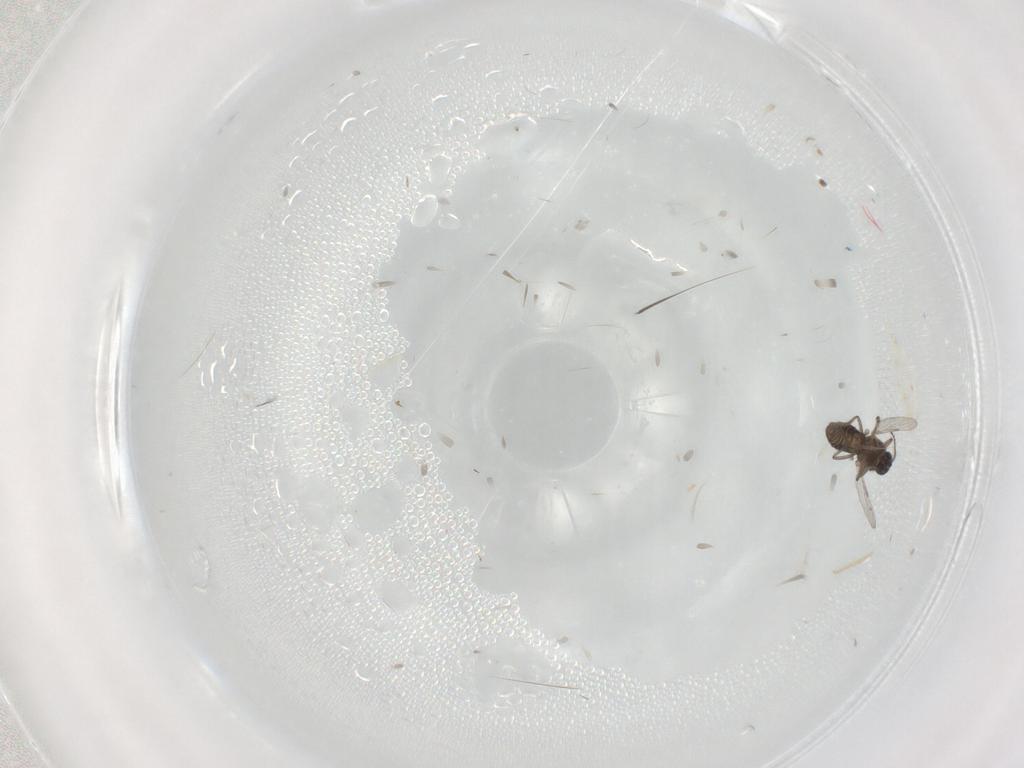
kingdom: Animalia
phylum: Arthropoda
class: Insecta
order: Diptera
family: Ceratopogonidae
